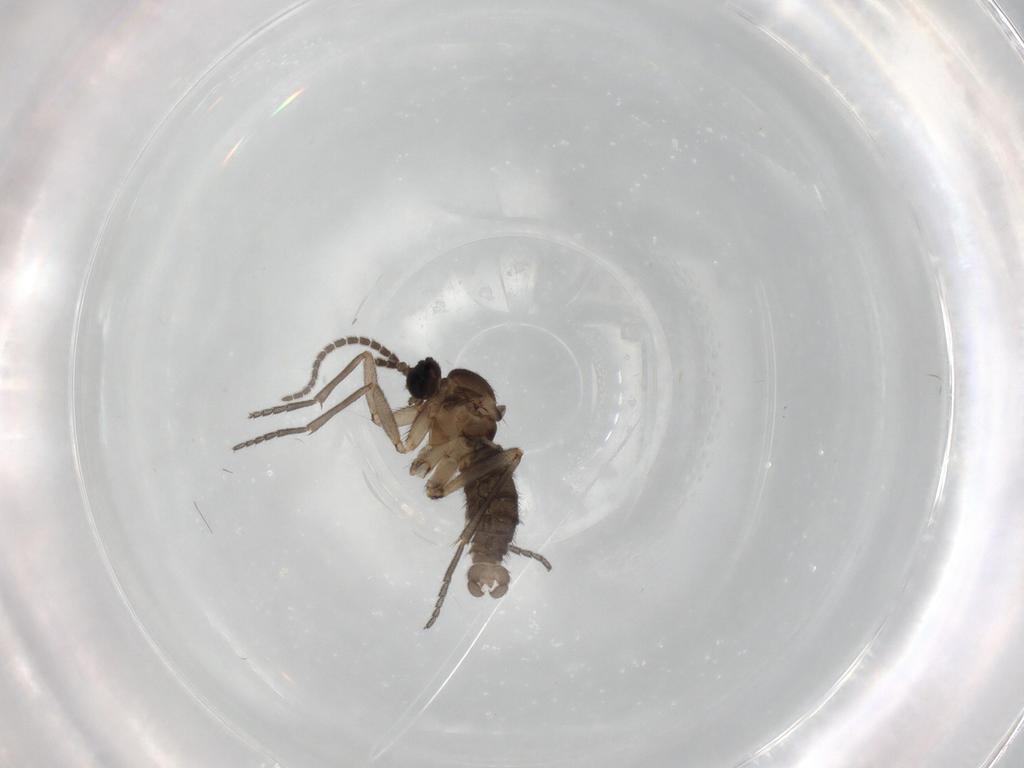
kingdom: Animalia
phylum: Arthropoda
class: Insecta
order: Diptera
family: Sciaridae
